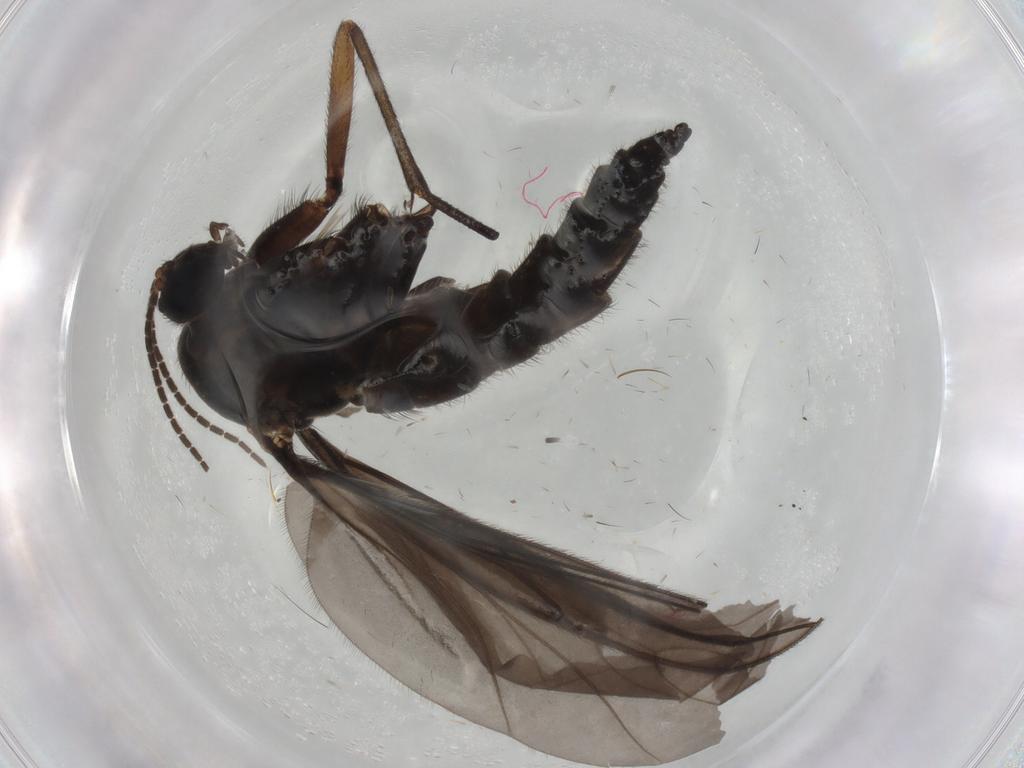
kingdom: Animalia
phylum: Arthropoda
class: Insecta
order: Diptera
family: Sciaridae
